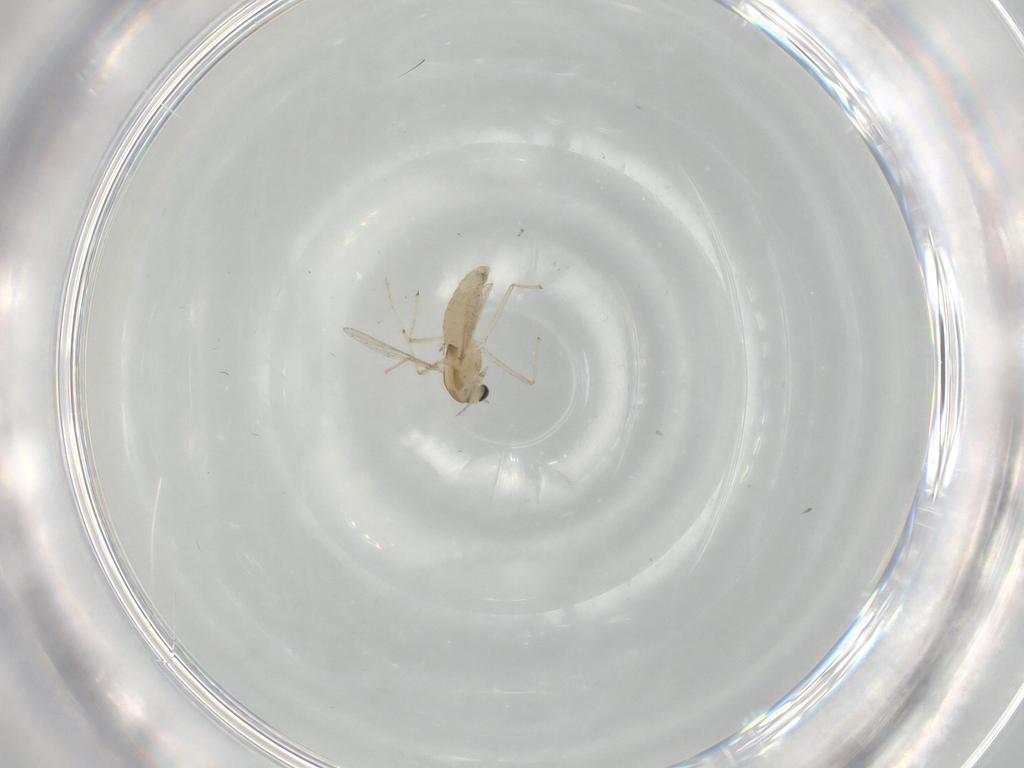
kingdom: Animalia
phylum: Arthropoda
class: Insecta
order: Diptera
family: Chironomidae
